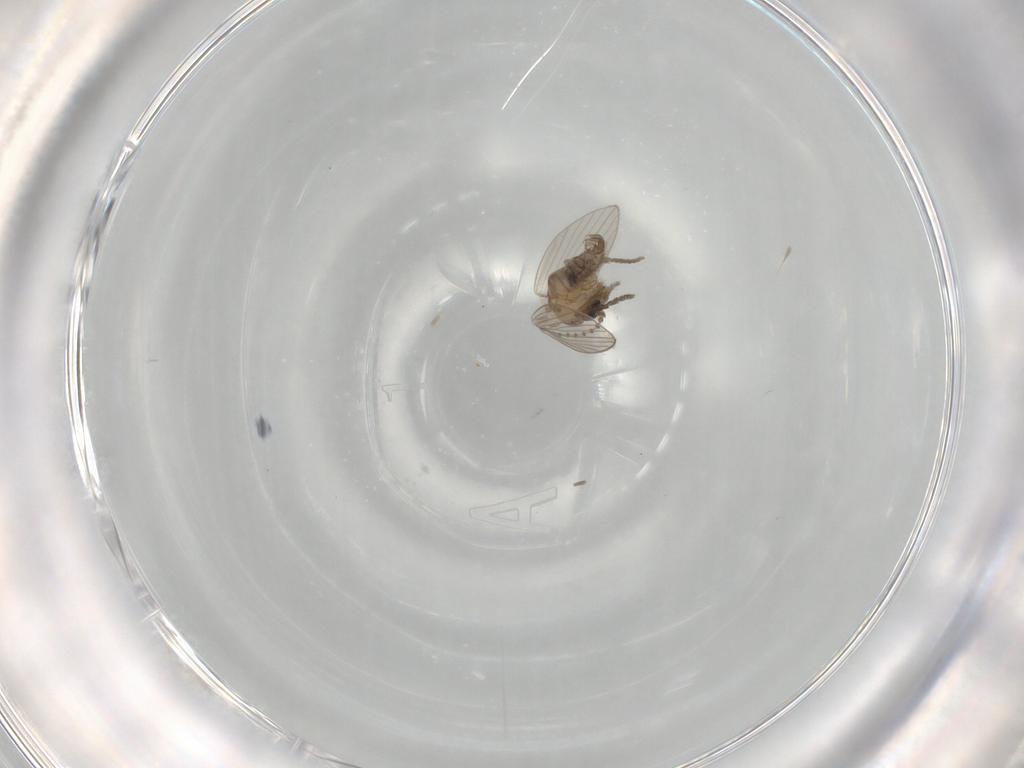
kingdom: Animalia
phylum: Arthropoda
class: Insecta
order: Diptera
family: Psychodidae
